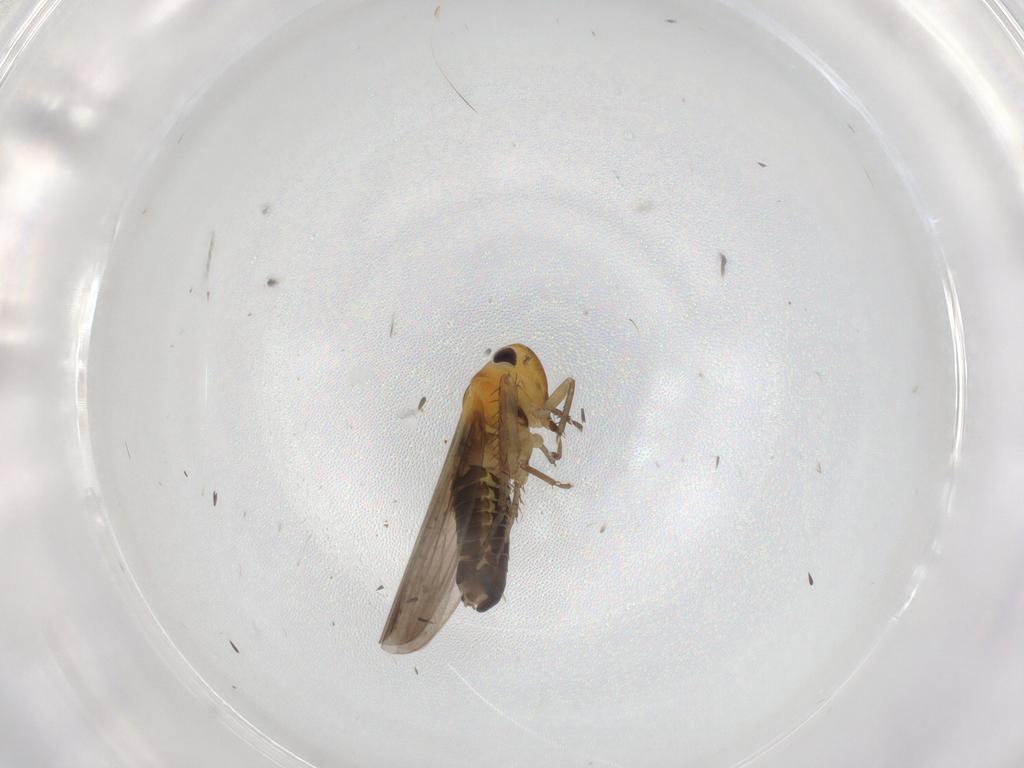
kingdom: Animalia
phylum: Arthropoda
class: Insecta
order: Hemiptera
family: Cicadellidae
